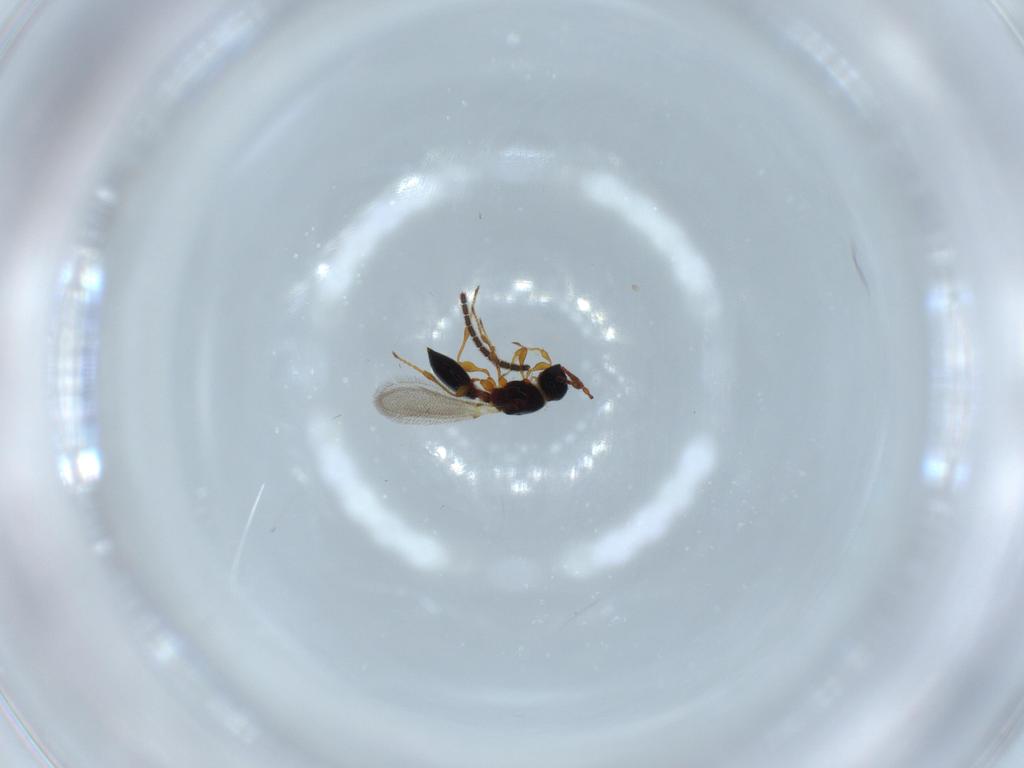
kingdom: Animalia
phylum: Arthropoda
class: Insecta
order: Hymenoptera
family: Diapriidae
